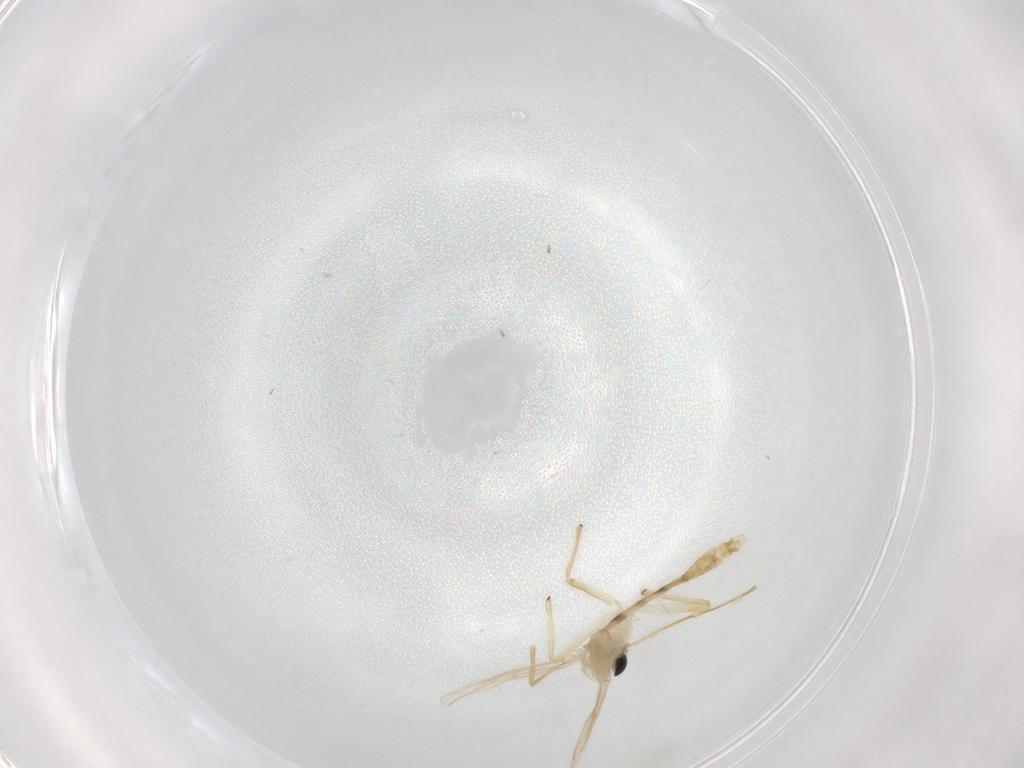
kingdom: Animalia
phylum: Arthropoda
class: Insecta
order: Diptera
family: Chironomidae
